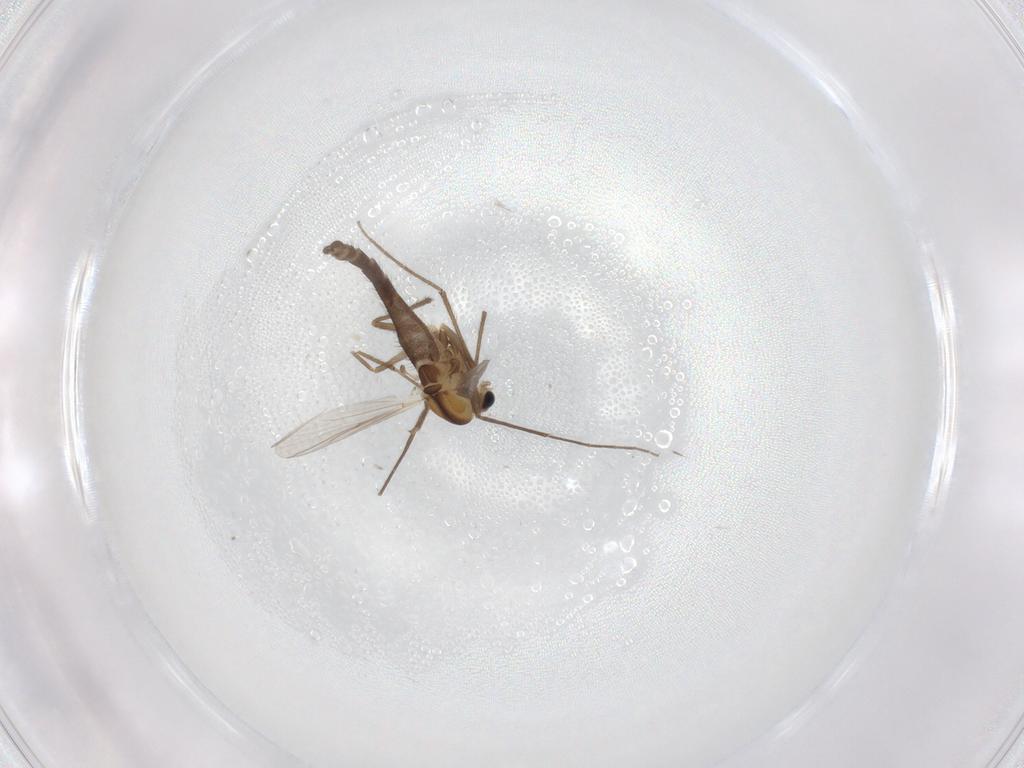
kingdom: Animalia
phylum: Arthropoda
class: Insecta
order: Diptera
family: Chironomidae
